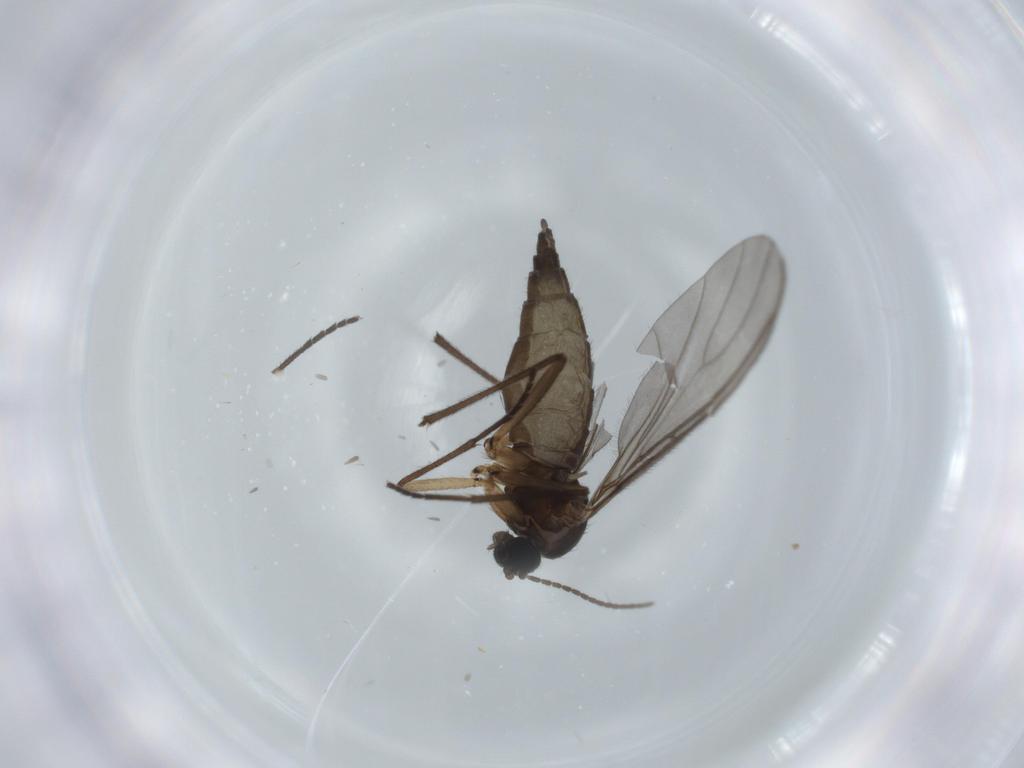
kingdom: Animalia
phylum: Arthropoda
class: Insecta
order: Diptera
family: Sciaridae
